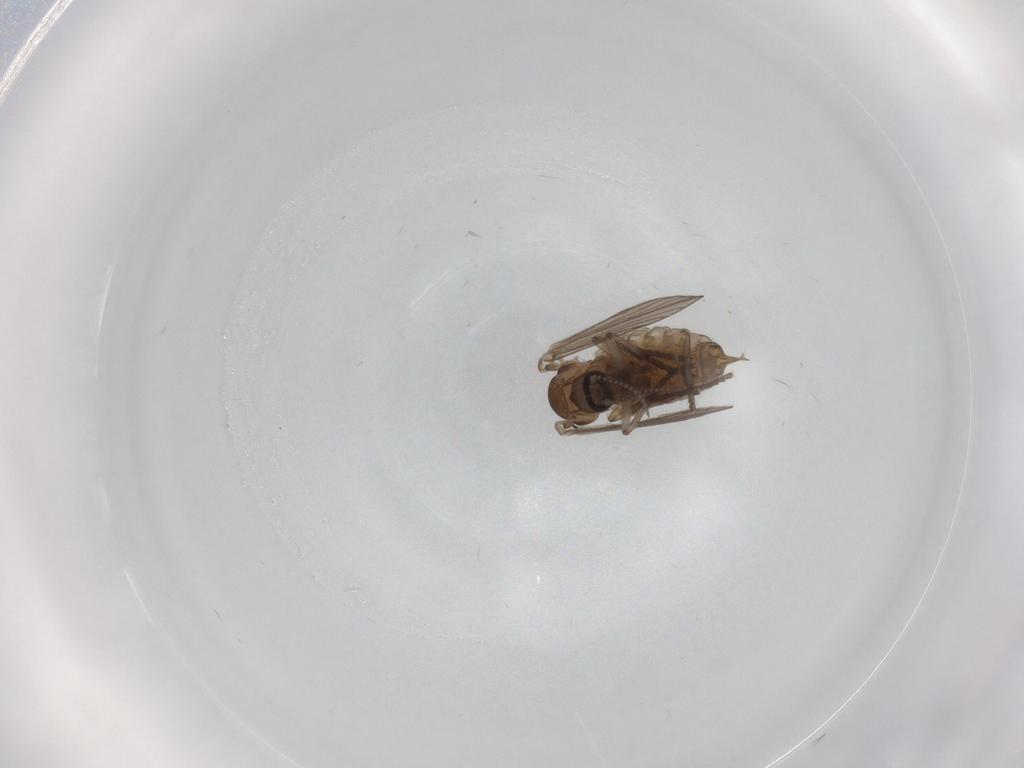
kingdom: Animalia
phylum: Arthropoda
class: Insecta
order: Diptera
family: Chloropidae
